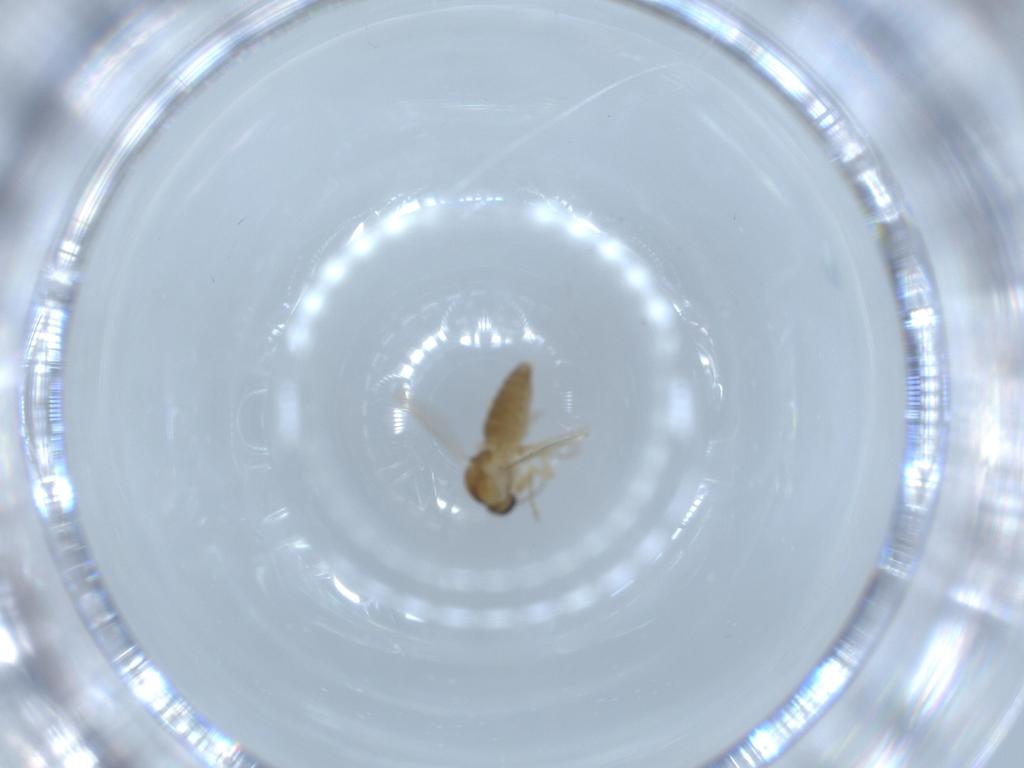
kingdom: Animalia
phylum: Arthropoda
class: Insecta
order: Diptera
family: Ceratopogonidae
